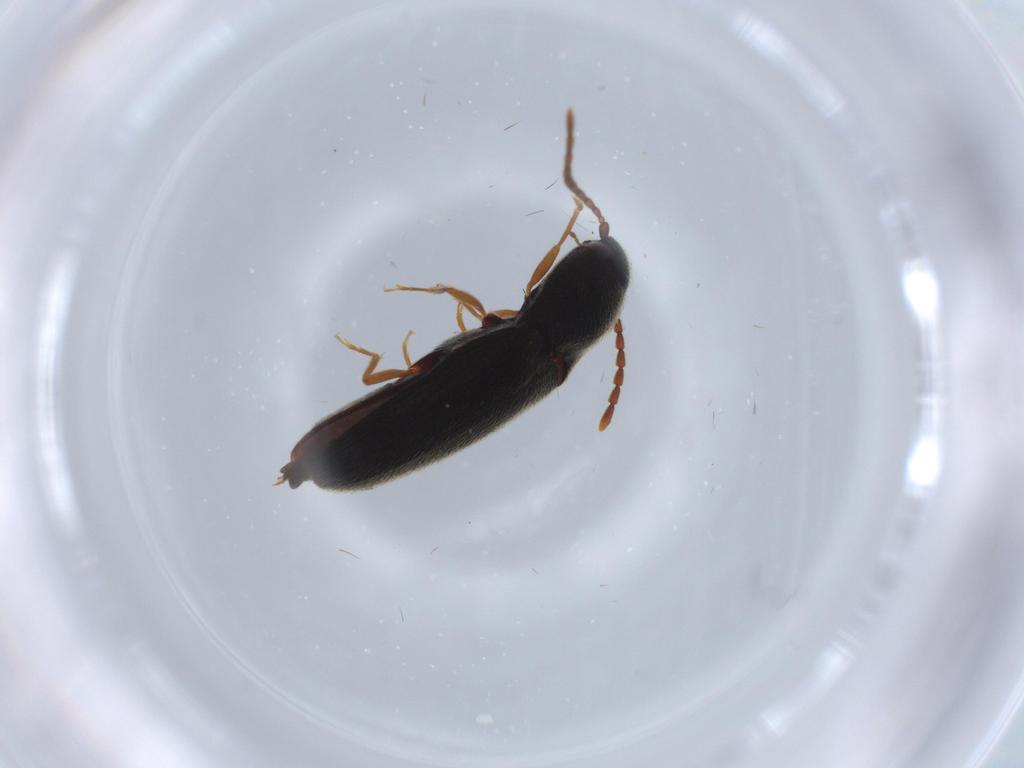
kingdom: Animalia
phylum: Arthropoda
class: Insecta
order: Coleoptera
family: Elateridae
